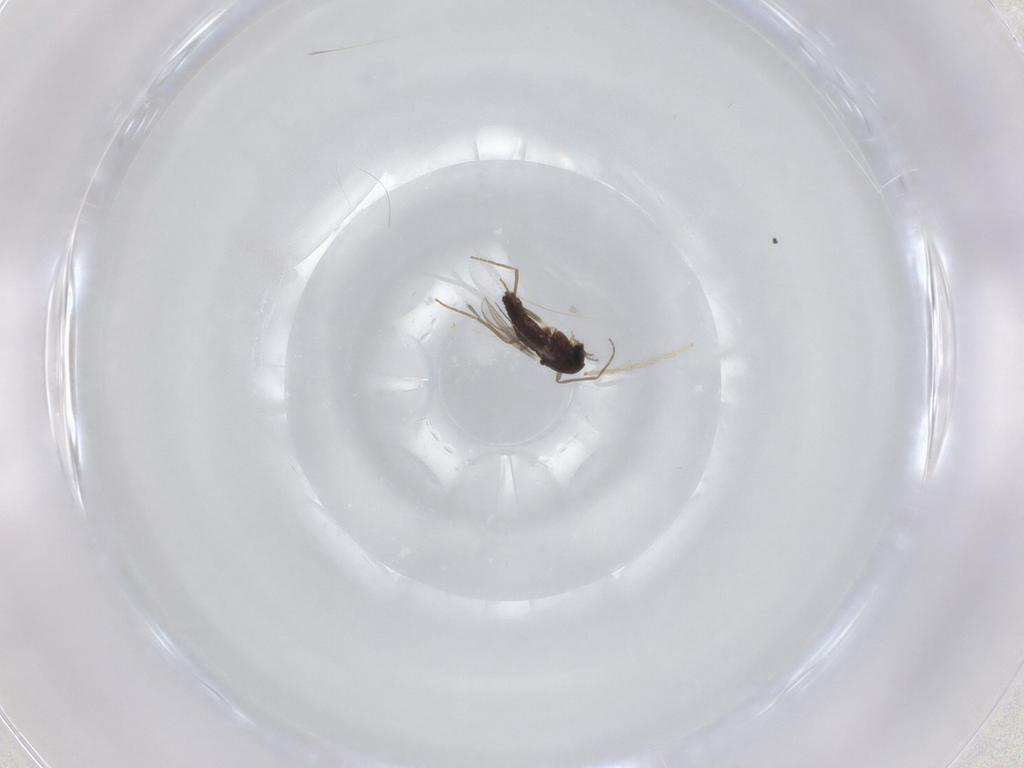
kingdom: Animalia
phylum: Arthropoda
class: Insecta
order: Diptera
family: Chironomidae
